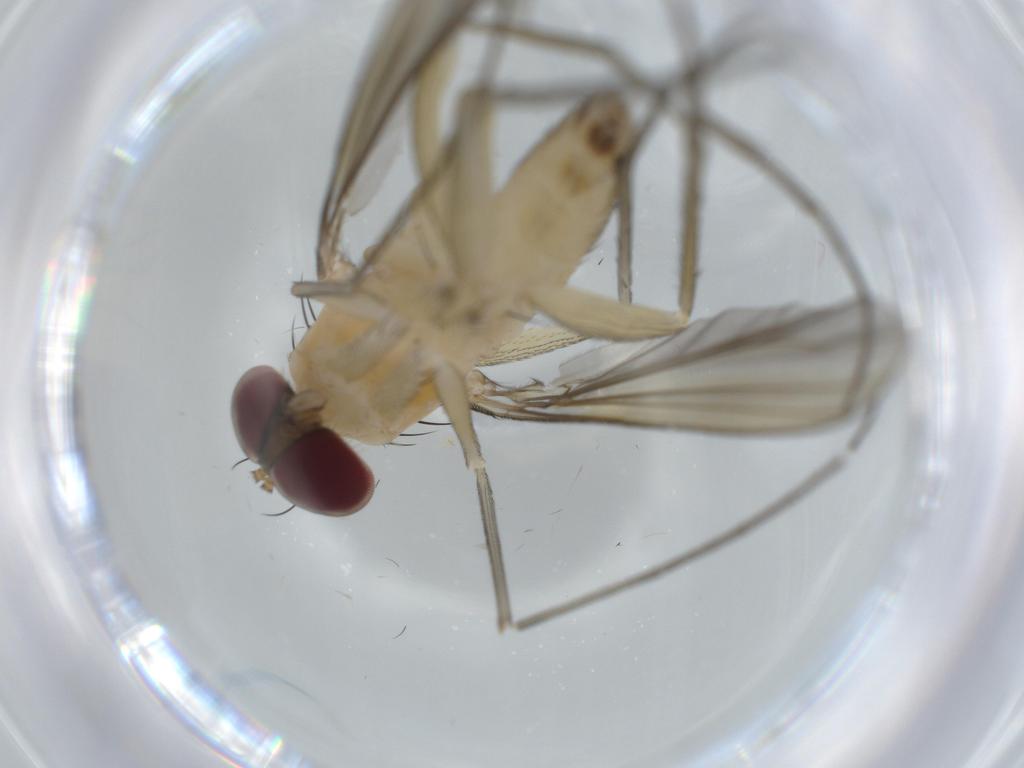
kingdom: Animalia
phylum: Arthropoda
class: Insecta
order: Diptera
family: Dolichopodidae
